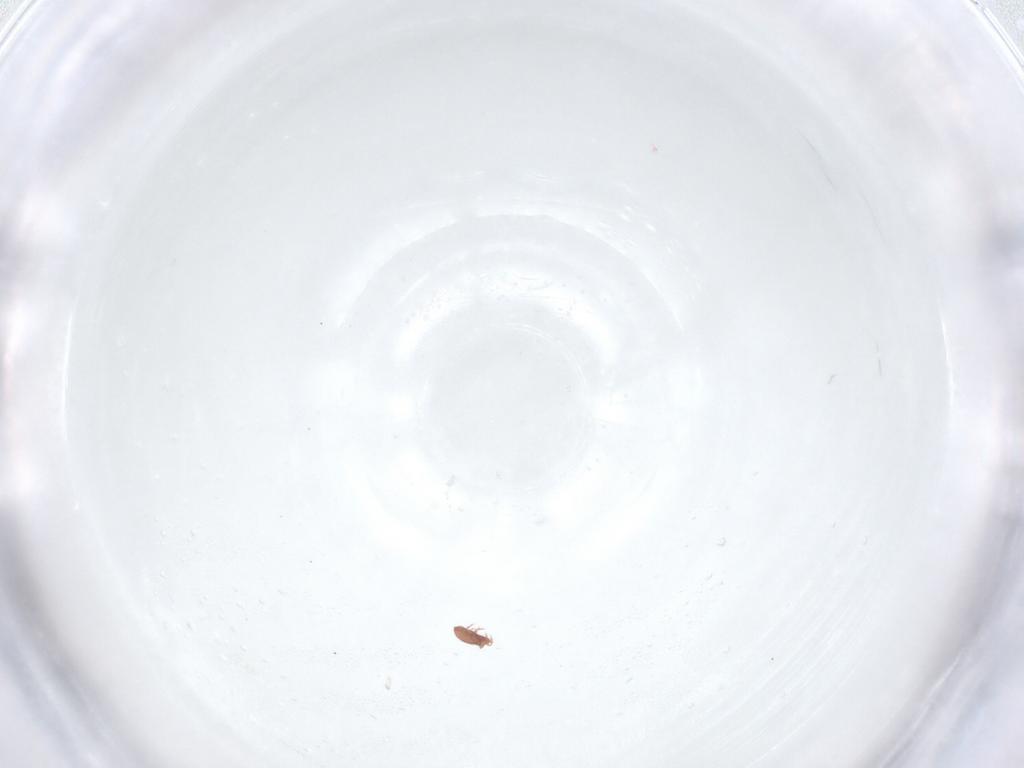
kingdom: Animalia
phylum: Arthropoda
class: Arachnida
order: Sarcoptiformes
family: Oppiidae
